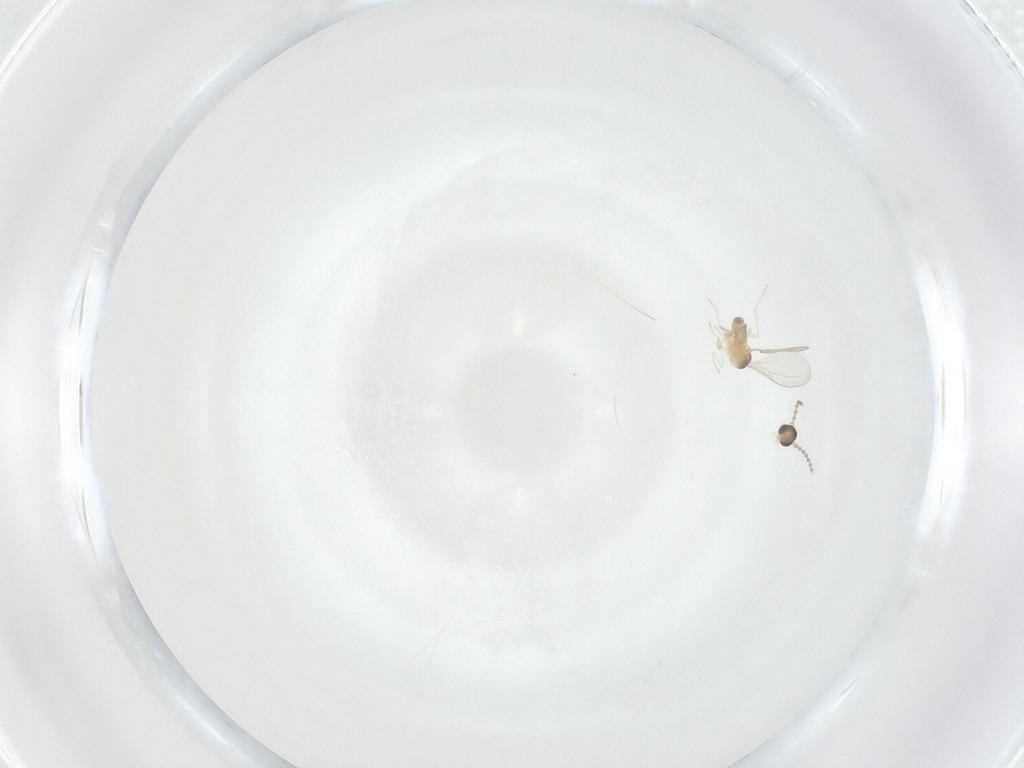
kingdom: Animalia
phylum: Arthropoda
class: Insecta
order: Diptera
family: Cecidomyiidae
